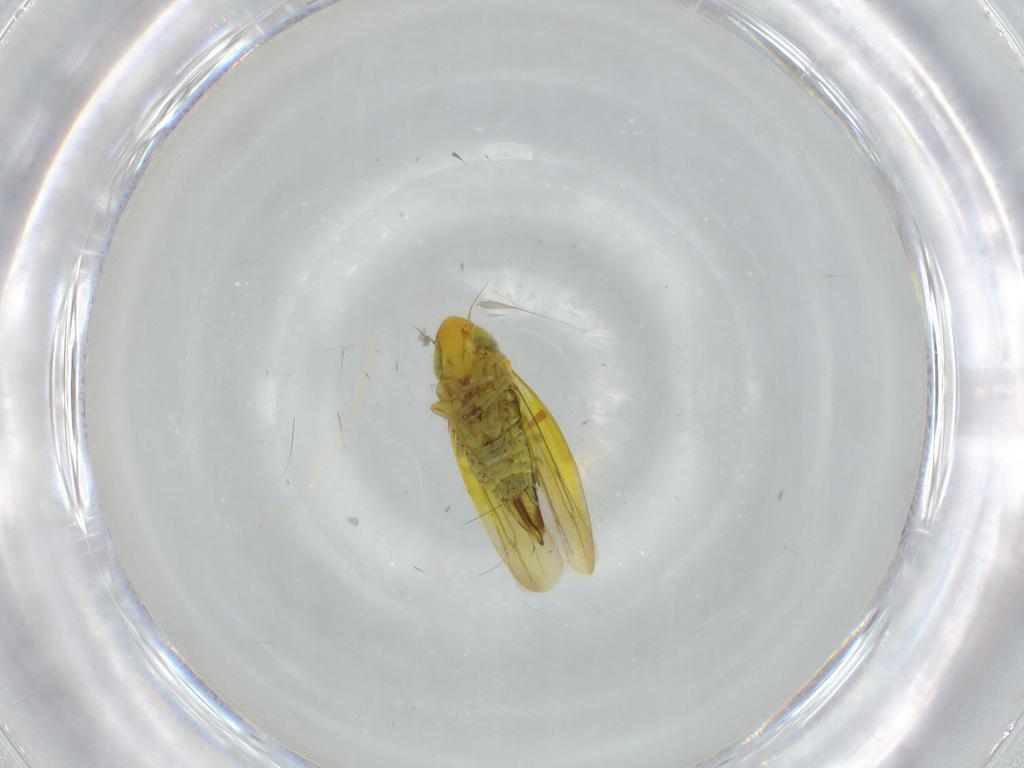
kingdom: Animalia
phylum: Arthropoda
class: Insecta
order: Hemiptera
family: Cicadellidae
